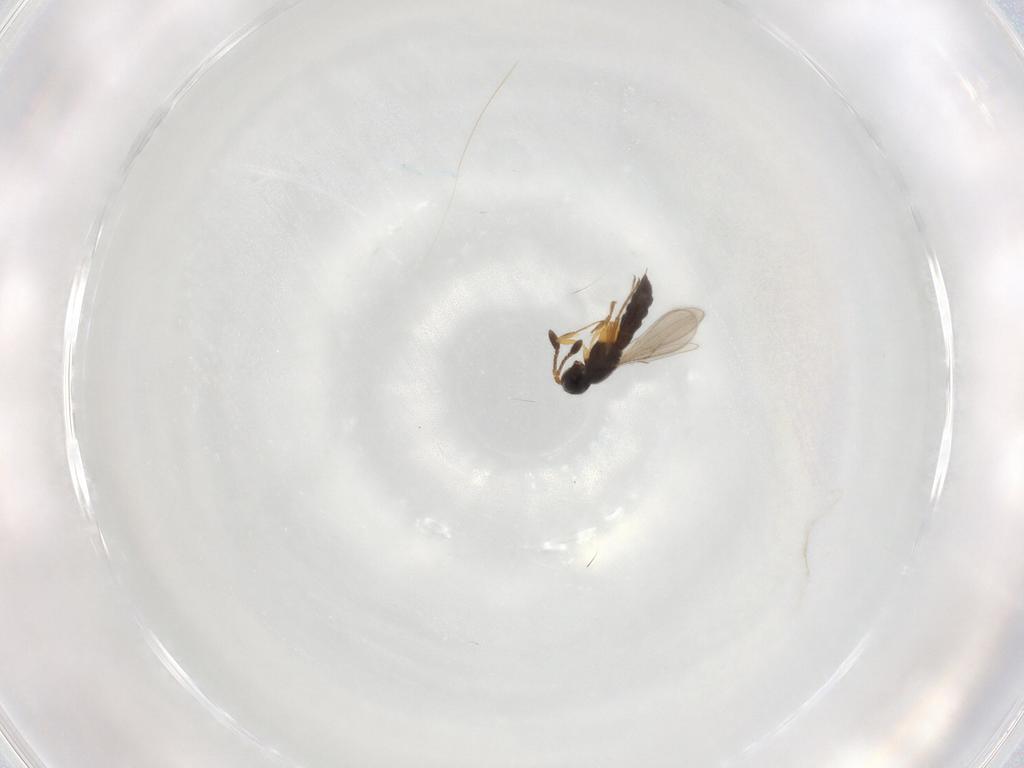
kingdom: Animalia
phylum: Arthropoda
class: Insecta
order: Hymenoptera
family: Scelionidae
